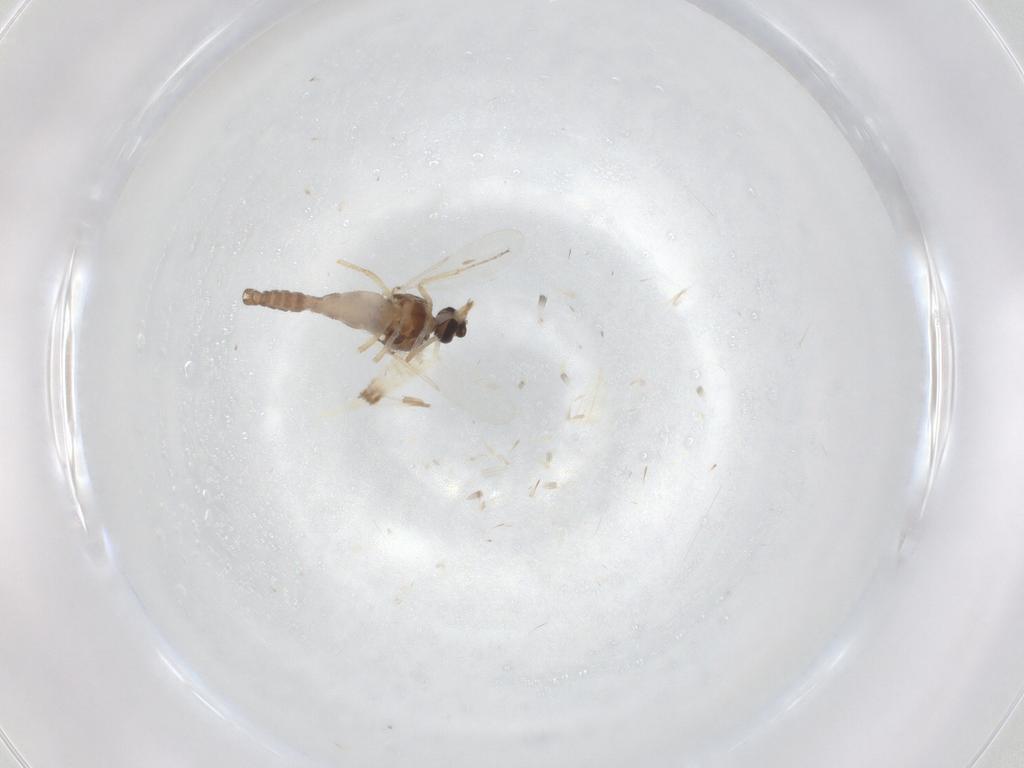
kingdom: Animalia
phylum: Arthropoda
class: Insecta
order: Diptera
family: Ceratopogonidae
